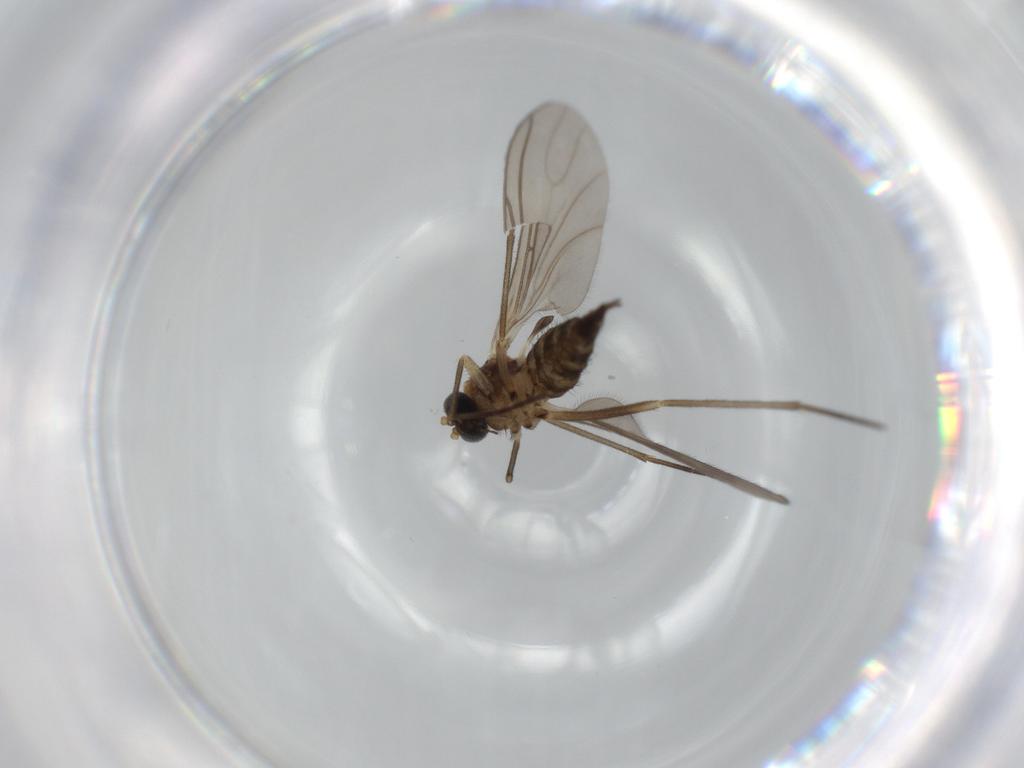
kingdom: Animalia
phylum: Arthropoda
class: Insecta
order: Diptera
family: Sciaridae
